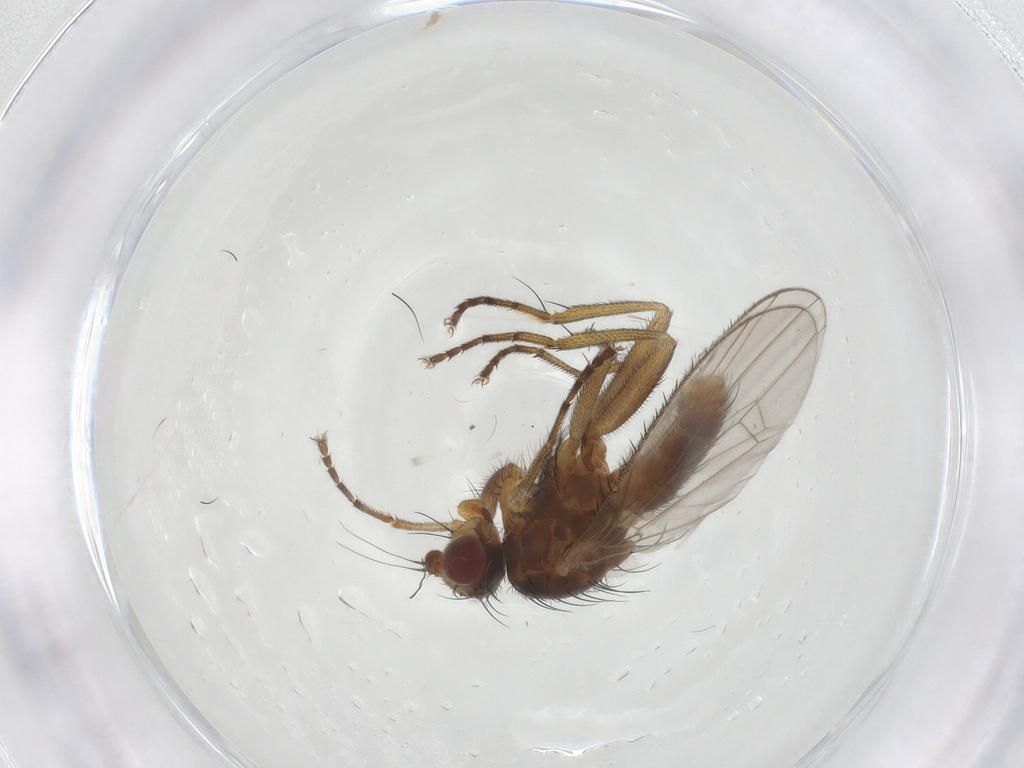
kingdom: Animalia
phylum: Arthropoda
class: Insecta
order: Diptera
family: Heleomyzidae
